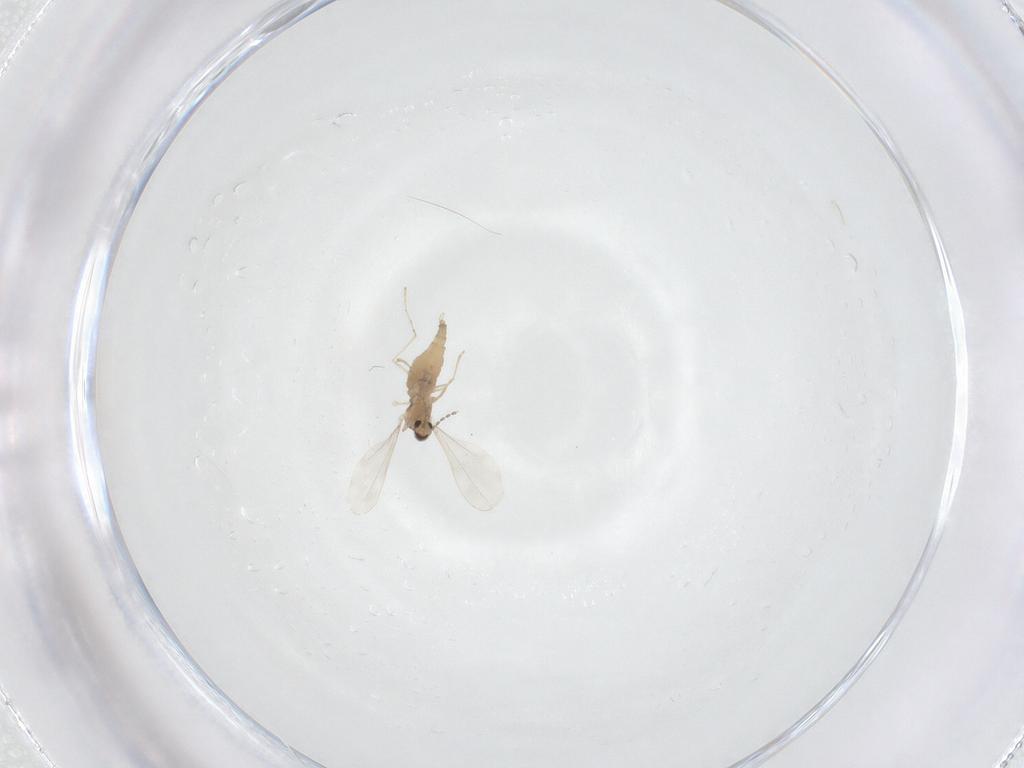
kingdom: Animalia
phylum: Arthropoda
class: Insecta
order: Diptera
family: Cecidomyiidae
